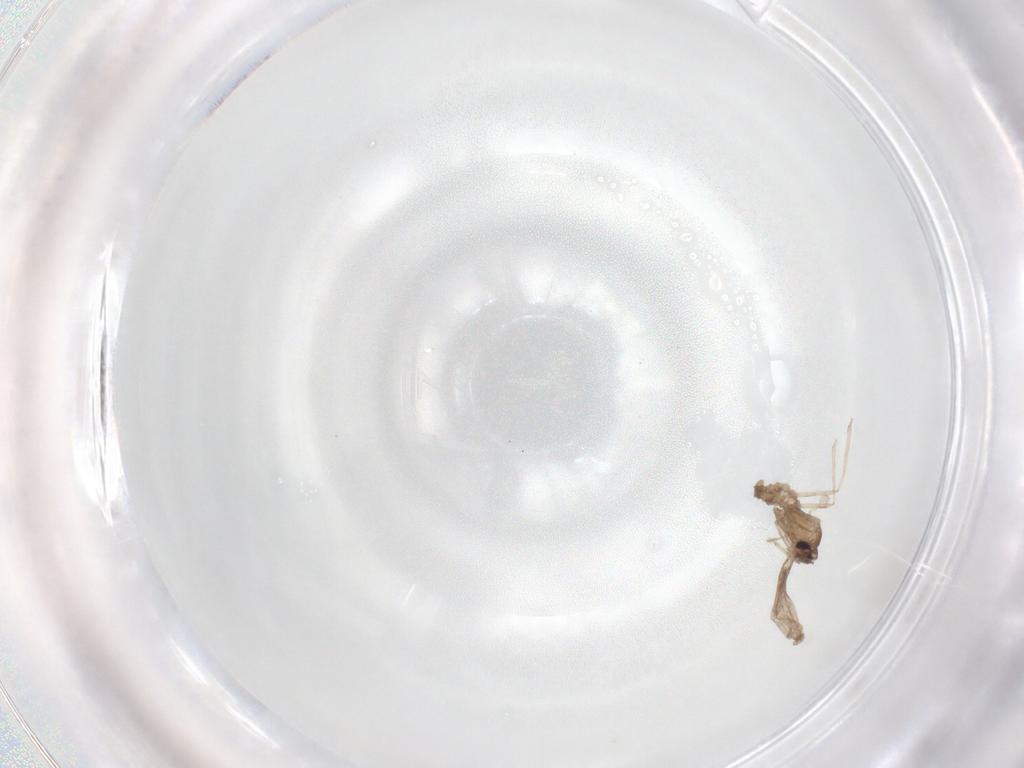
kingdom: Animalia
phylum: Arthropoda
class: Insecta
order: Diptera
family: Cecidomyiidae
